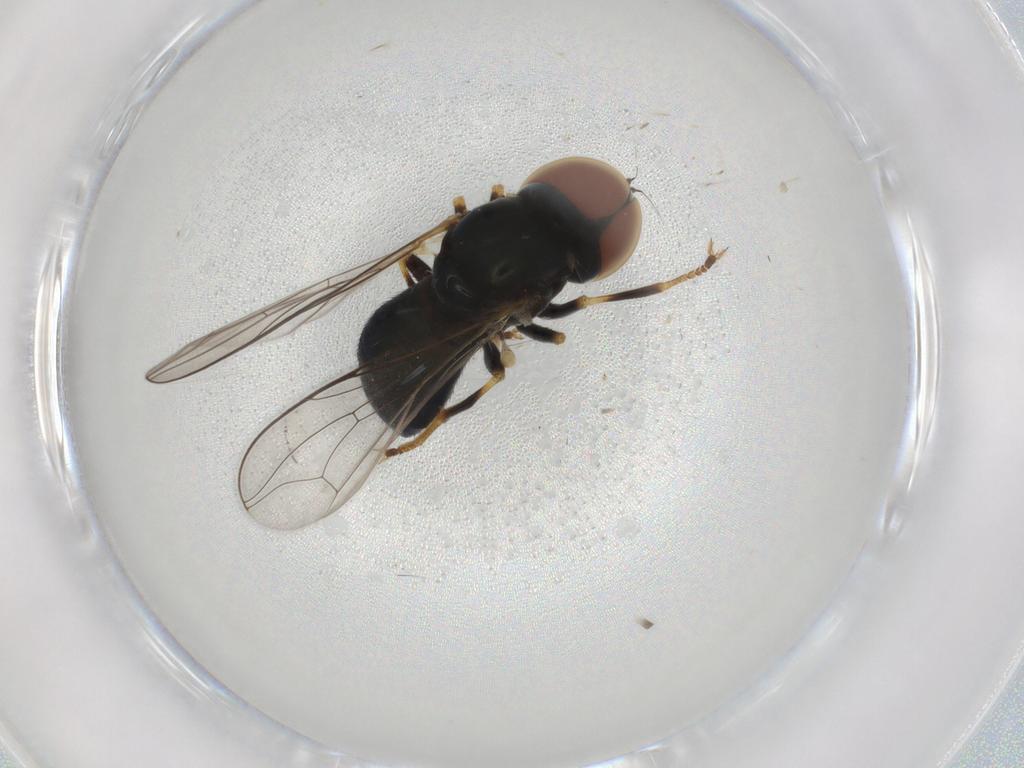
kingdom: Animalia
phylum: Arthropoda
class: Insecta
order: Diptera
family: Pipunculidae
